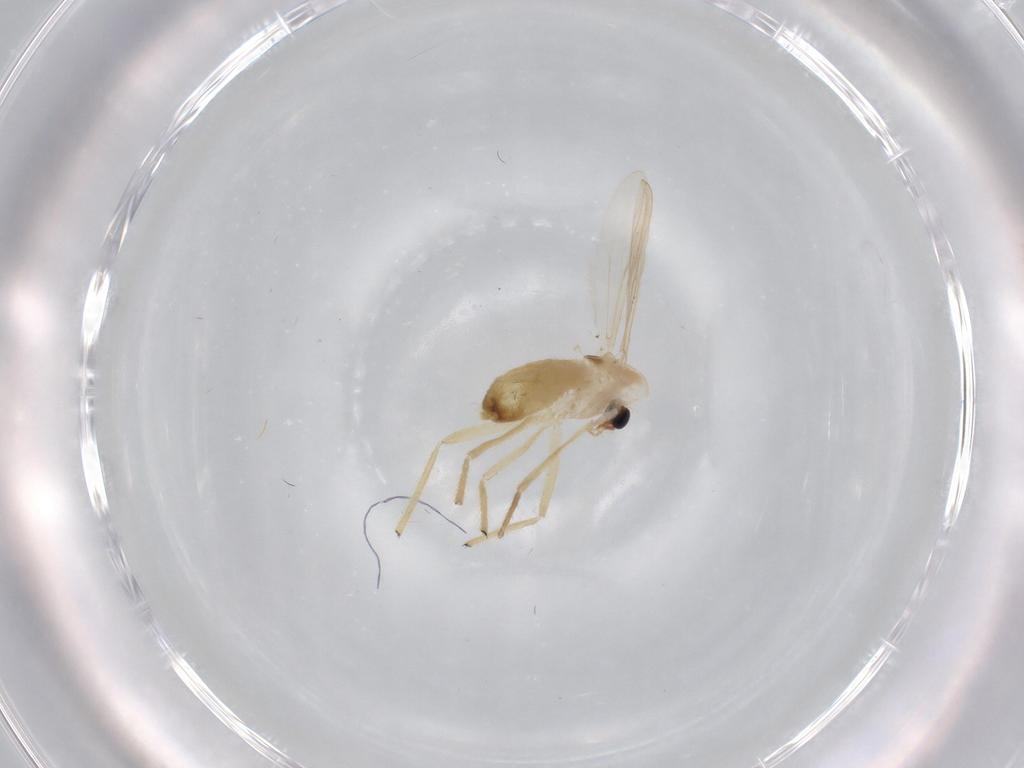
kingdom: Animalia
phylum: Arthropoda
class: Insecta
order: Diptera
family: Chironomidae
